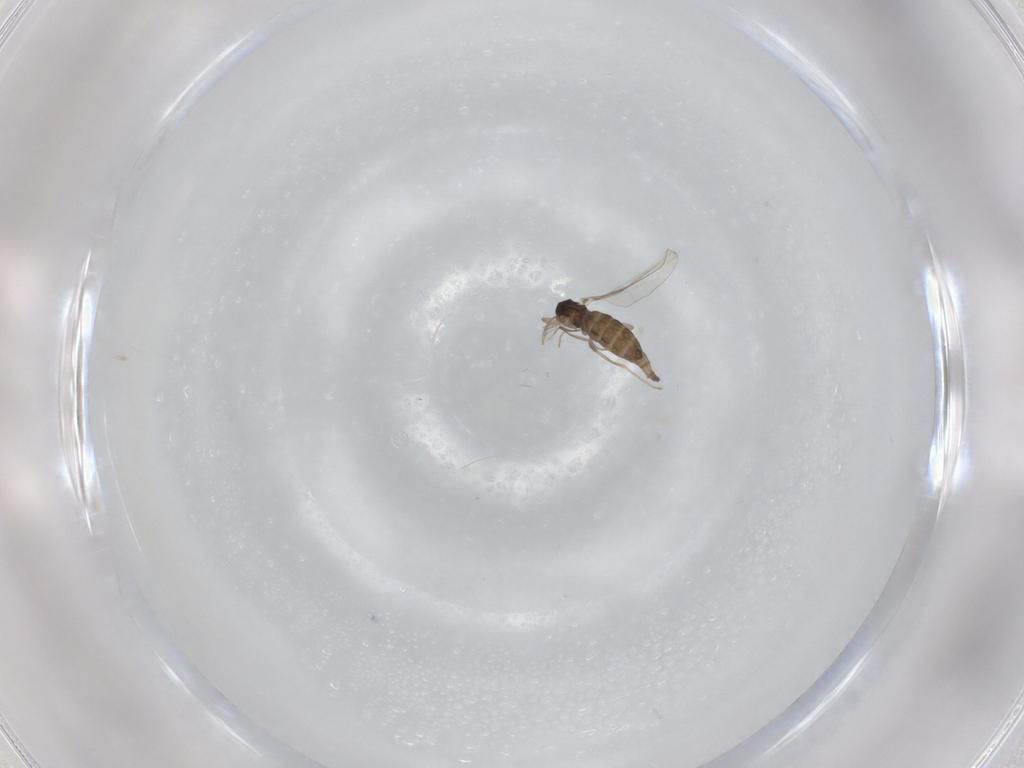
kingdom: Animalia
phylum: Arthropoda
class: Insecta
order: Diptera
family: Cecidomyiidae
